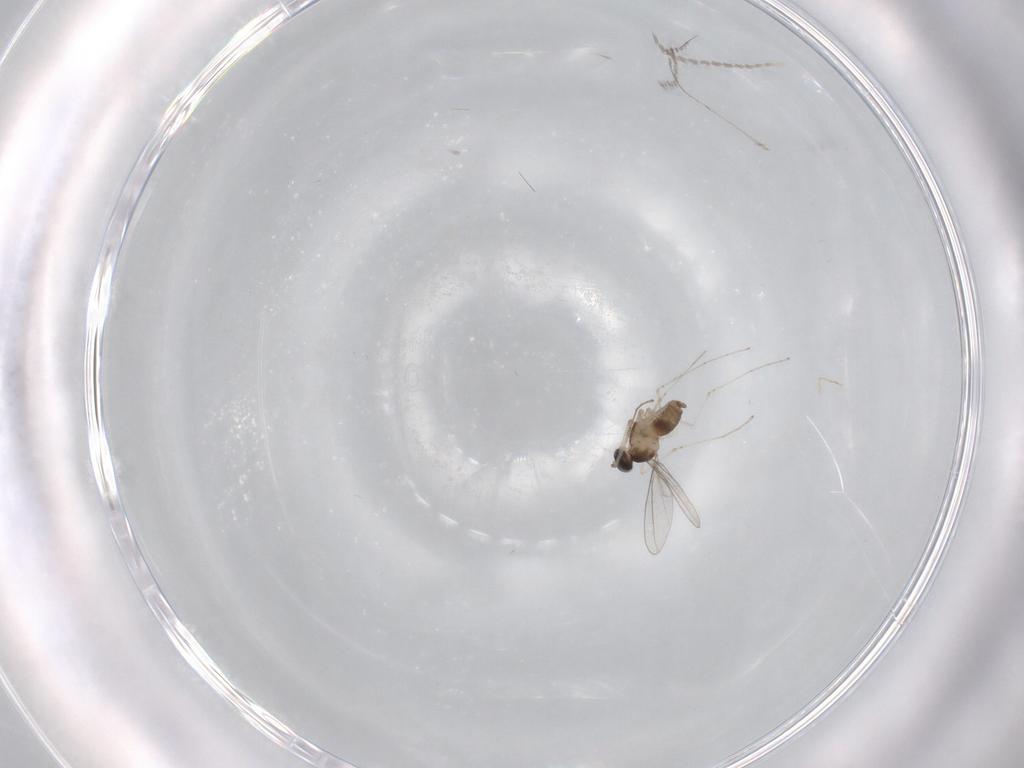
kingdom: Animalia
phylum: Arthropoda
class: Insecta
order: Diptera
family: Cecidomyiidae
